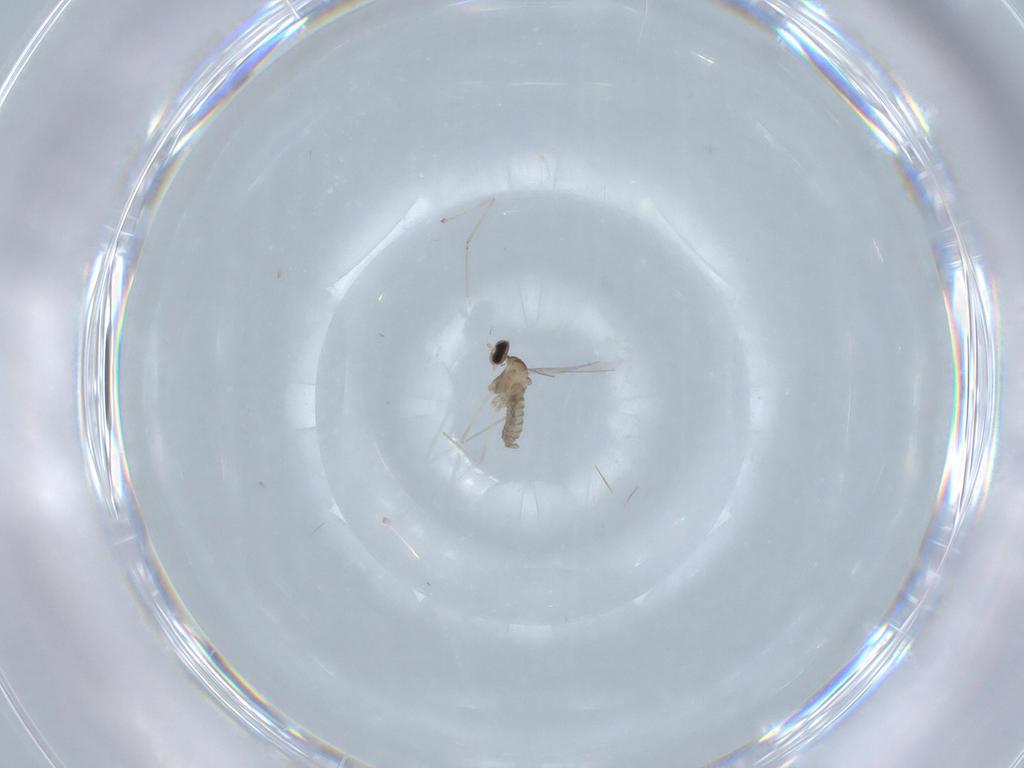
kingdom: Animalia
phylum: Arthropoda
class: Insecta
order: Diptera
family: Cecidomyiidae
